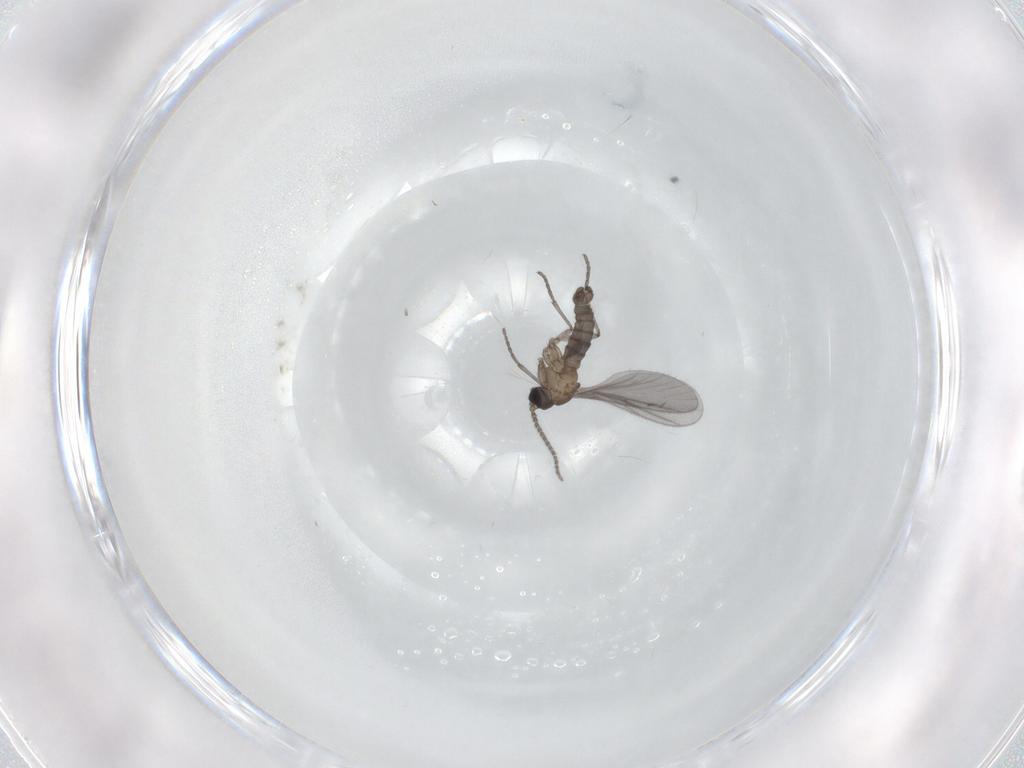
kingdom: Animalia
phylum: Arthropoda
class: Insecta
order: Diptera
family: Sciaridae
